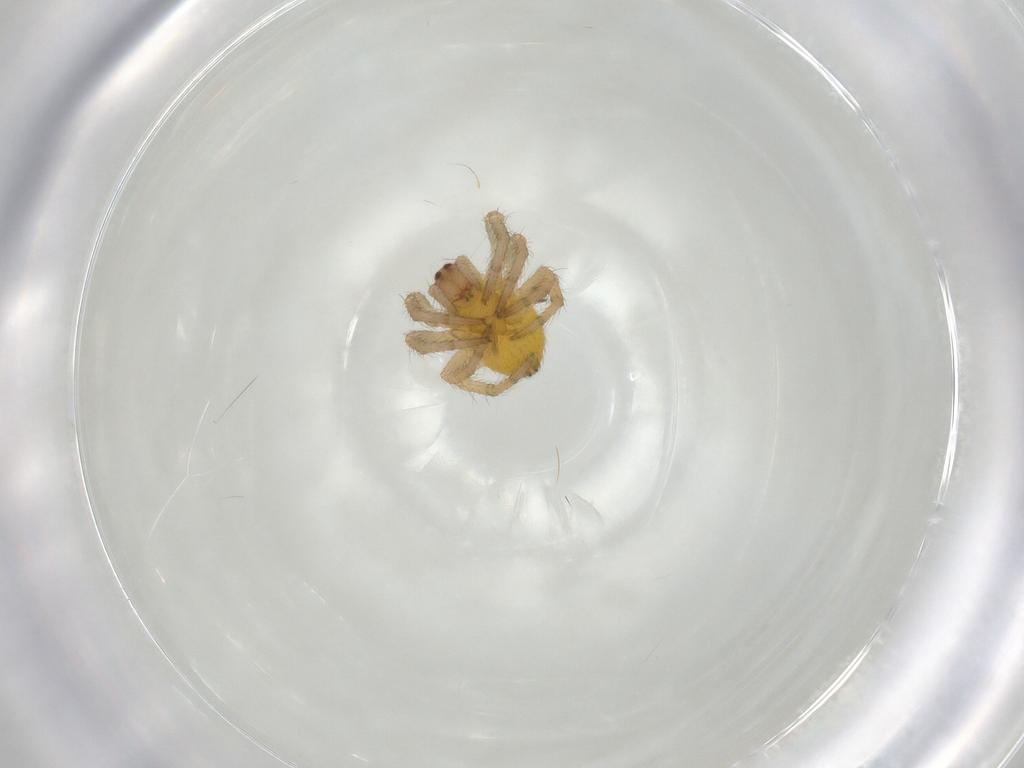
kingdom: Animalia
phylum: Arthropoda
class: Arachnida
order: Araneae
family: Araneidae
